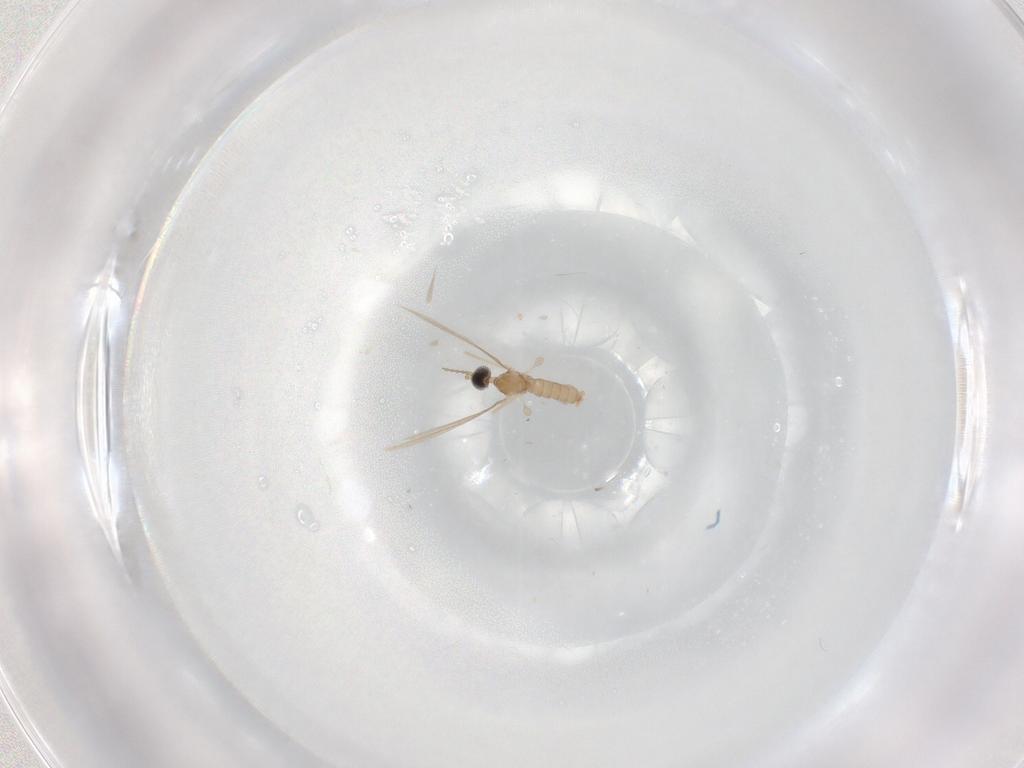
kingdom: Animalia
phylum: Arthropoda
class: Insecta
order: Diptera
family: Cecidomyiidae
